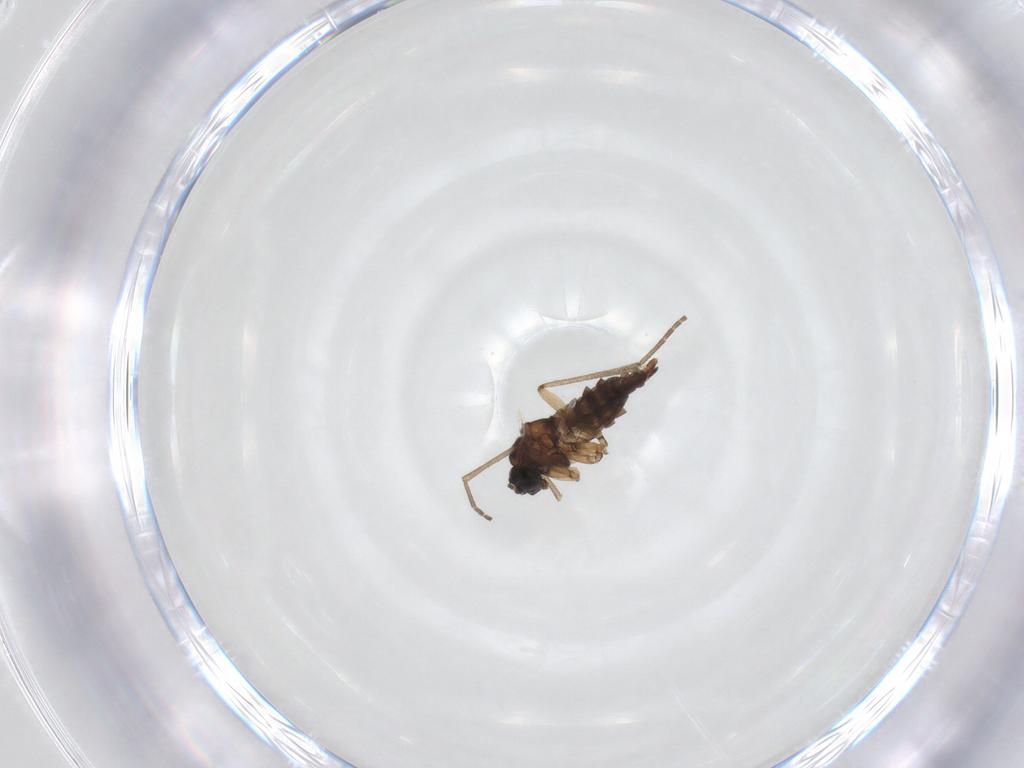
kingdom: Animalia
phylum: Arthropoda
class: Insecta
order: Diptera
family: Sciaridae
